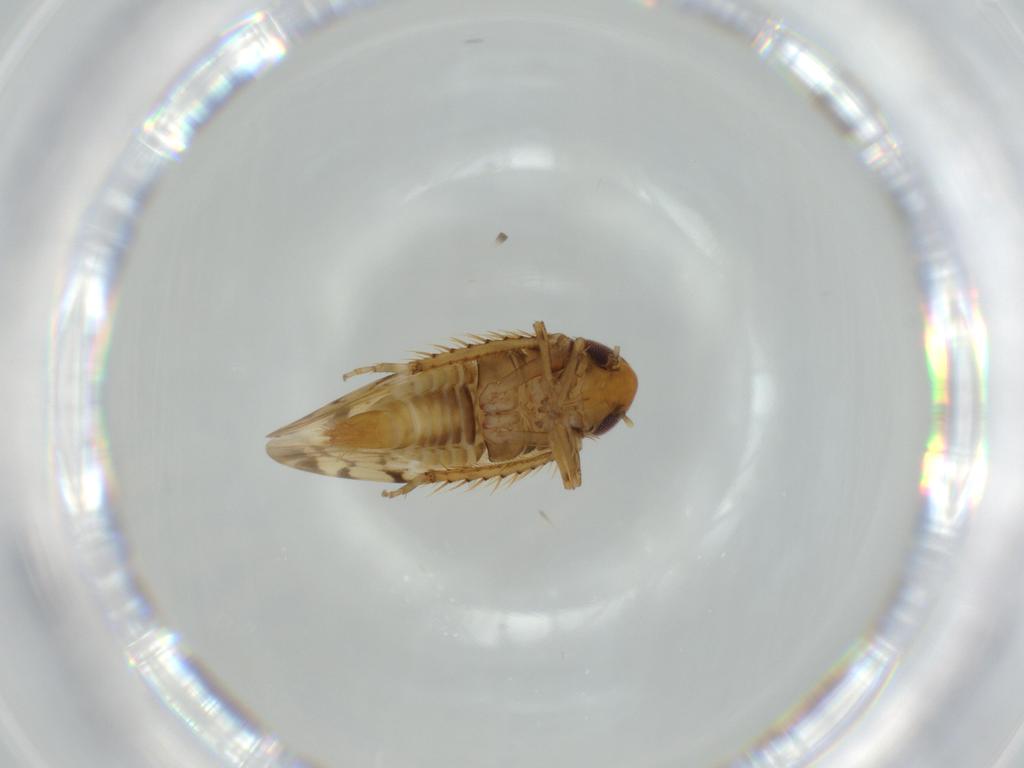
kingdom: Animalia
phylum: Arthropoda
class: Insecta
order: Hemiptera
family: Cicadellidae
